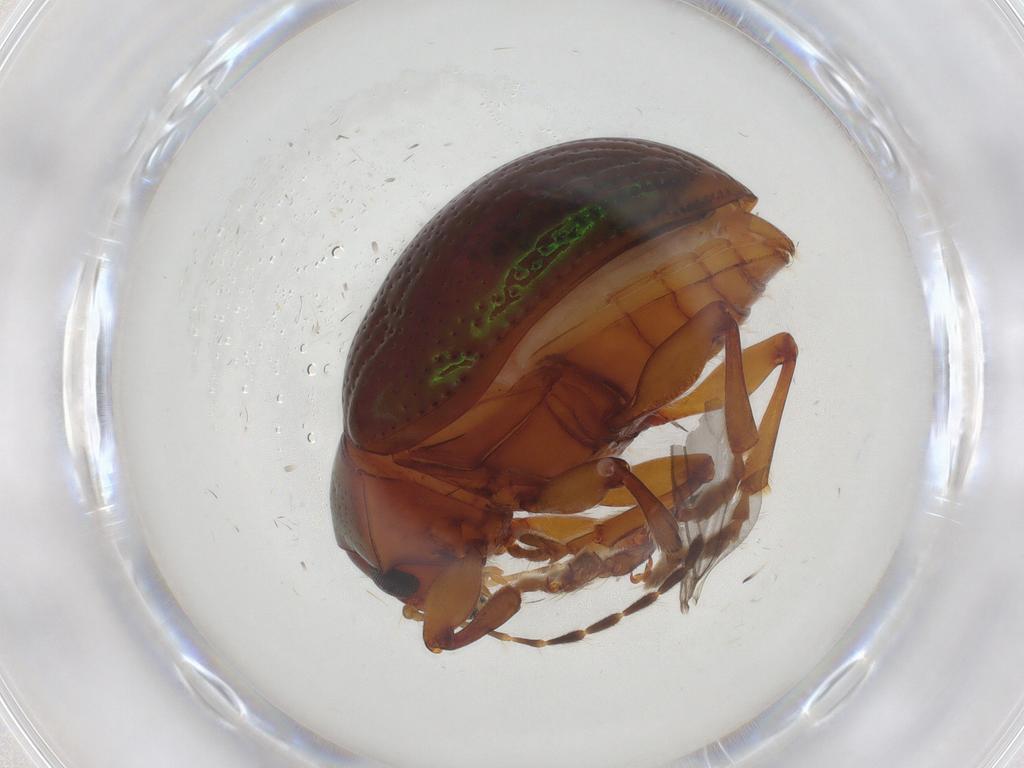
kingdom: Animalia
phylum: Arthropoda
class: Insecta
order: Coleoptera
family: Chrysomelidae
